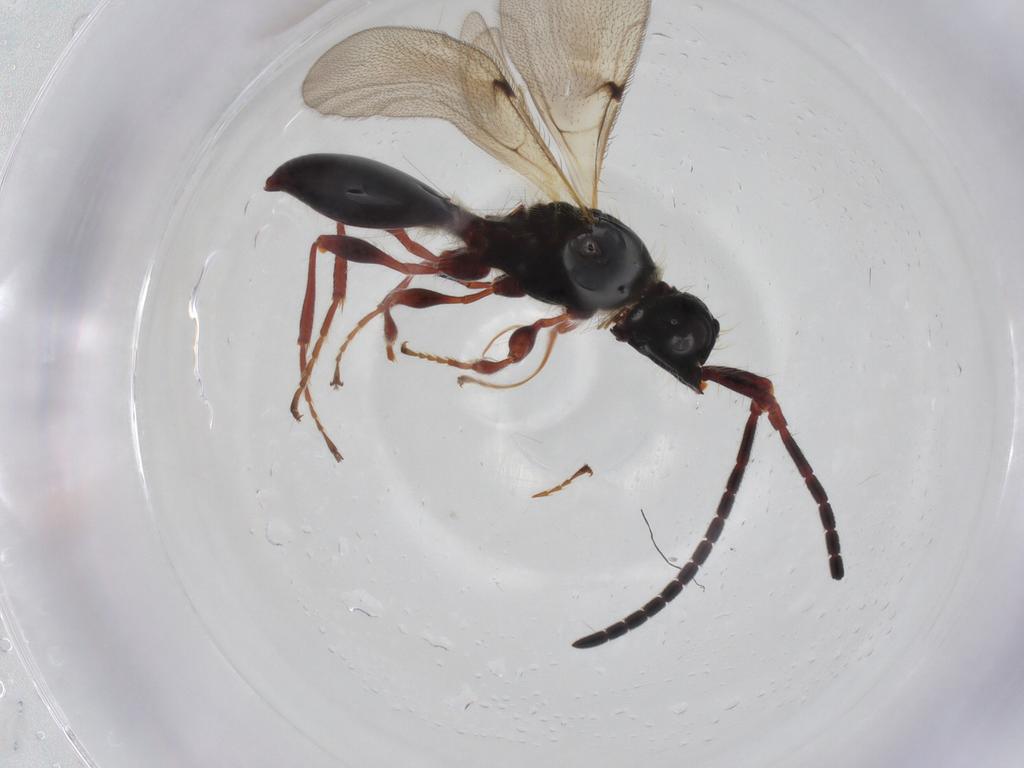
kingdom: Animalia
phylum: Arthropoda
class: Insecta
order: Hymenoptera
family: Diapriidae
